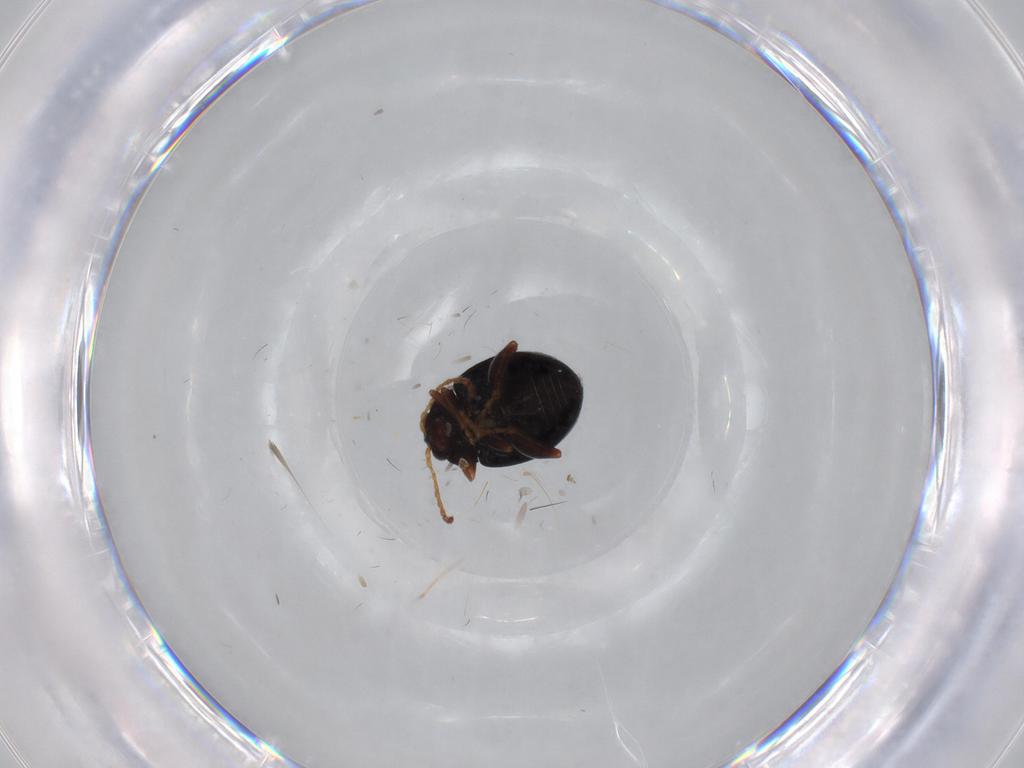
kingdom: Animalia
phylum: Arthropoda
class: Insecta
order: Coleoptera
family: Cantharidae
